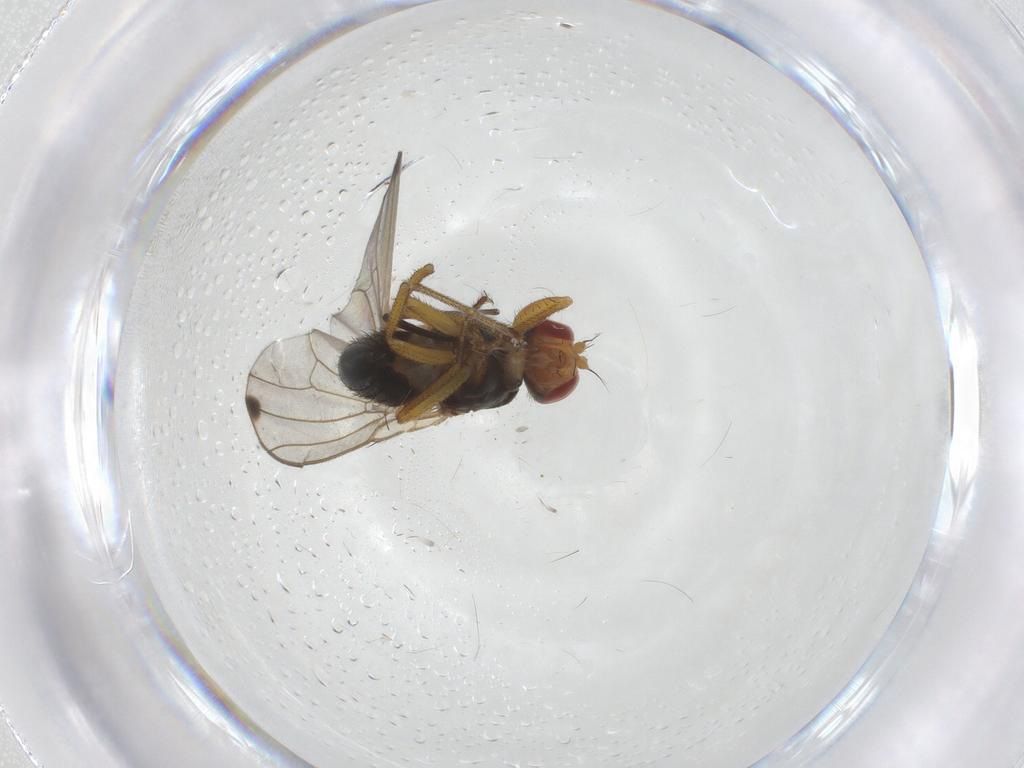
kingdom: Animalia
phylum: Arthropoda
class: Insecta
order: Diptera
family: Drosophilidae
